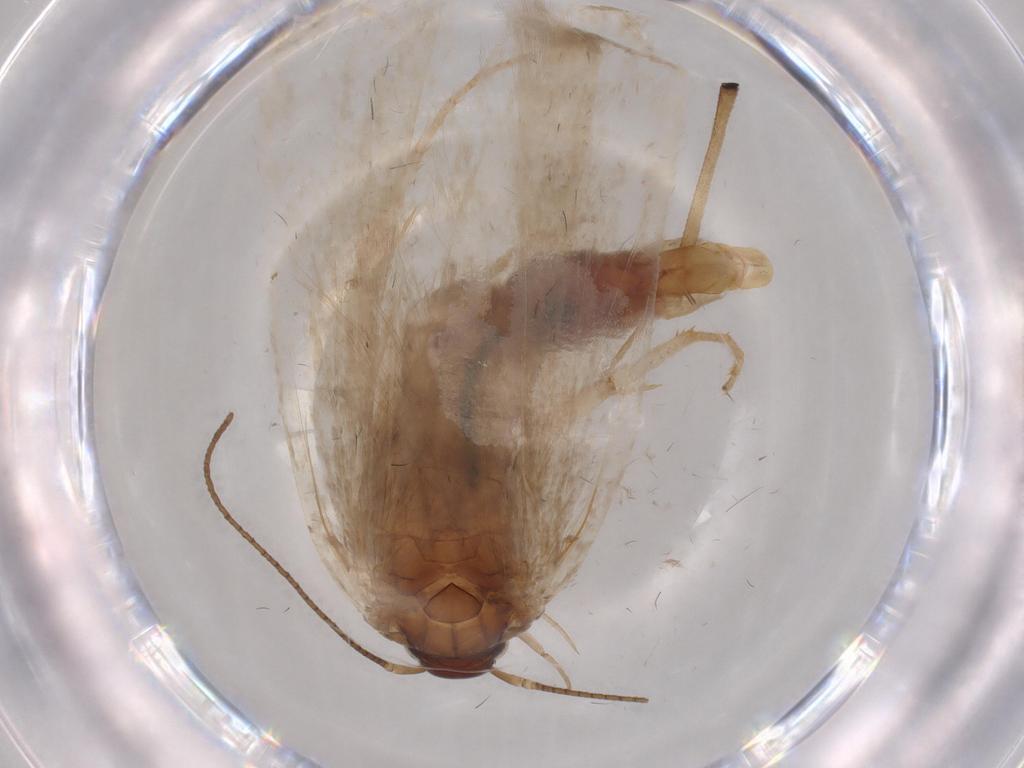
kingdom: Animalia
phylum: Arthropoda
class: Insecta
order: Lepidoptera
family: Gelechiidae
